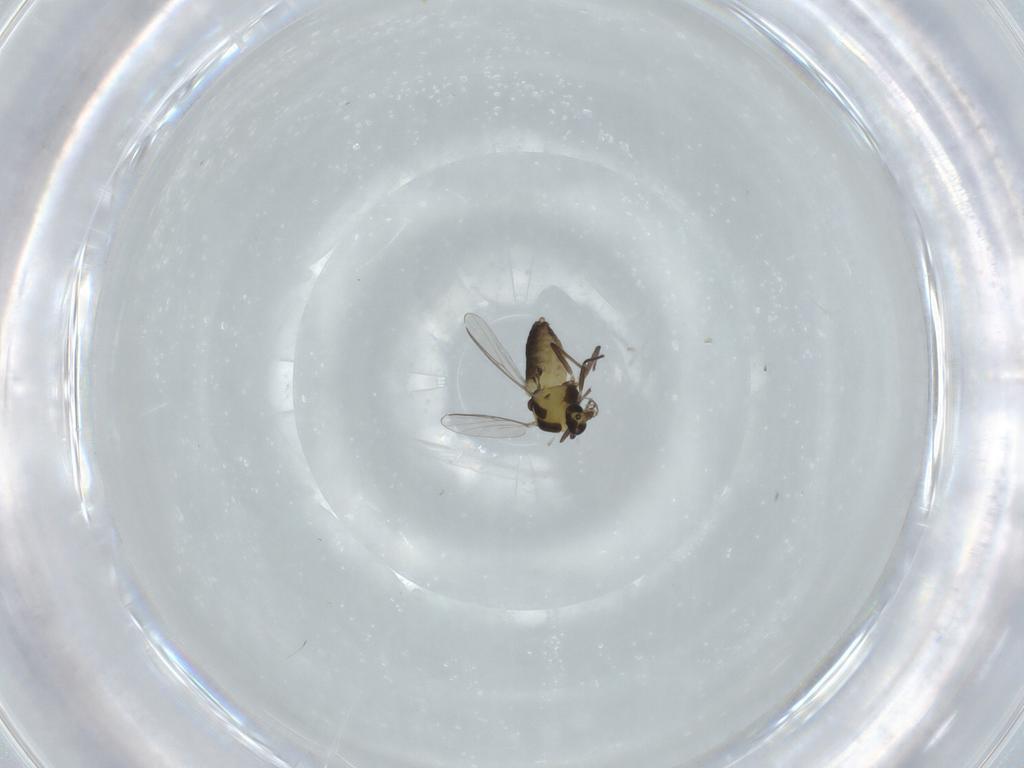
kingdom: Animalia
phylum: Arthropoda
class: Insecta
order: Diptera
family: Chironomidae
